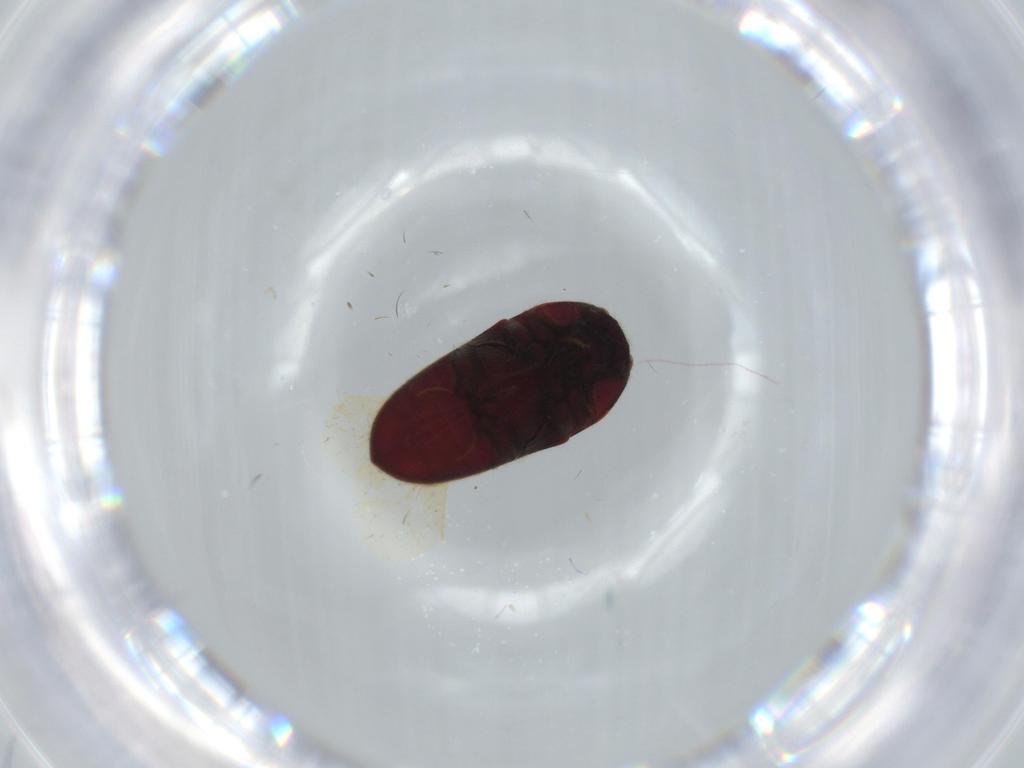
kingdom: Animalia
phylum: Arthropoda
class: Insecta
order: Coleoptera
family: Throscidae
